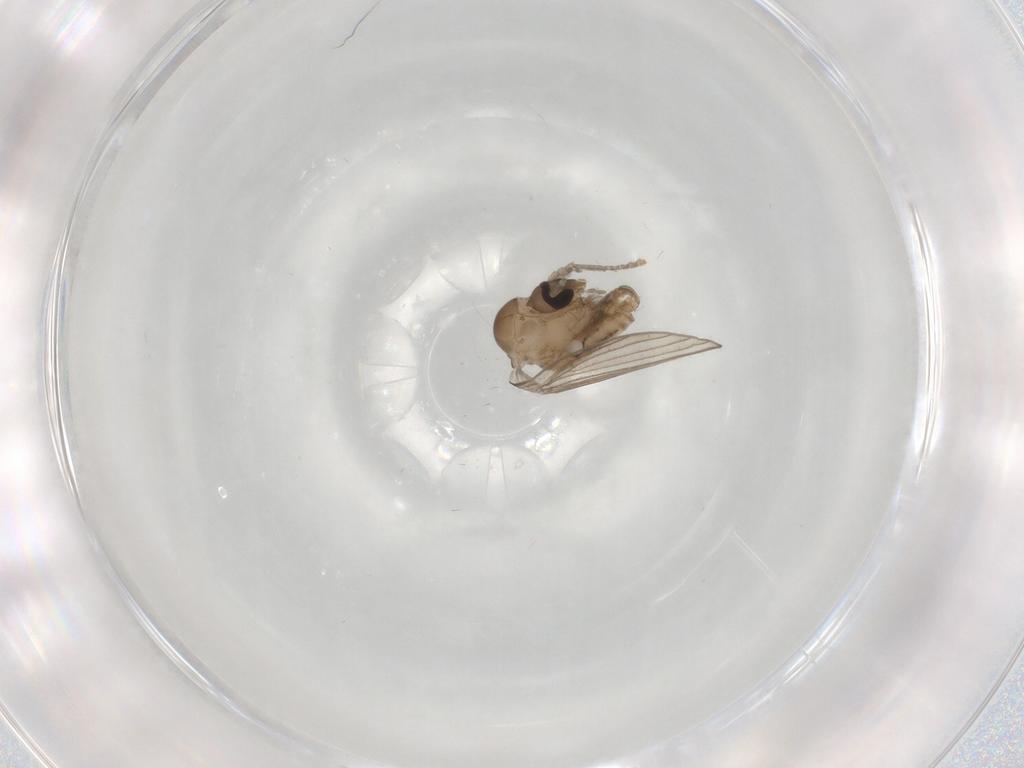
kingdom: Animalia
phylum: Arthropoda
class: Insecta
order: Diptera
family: Psychodidae
